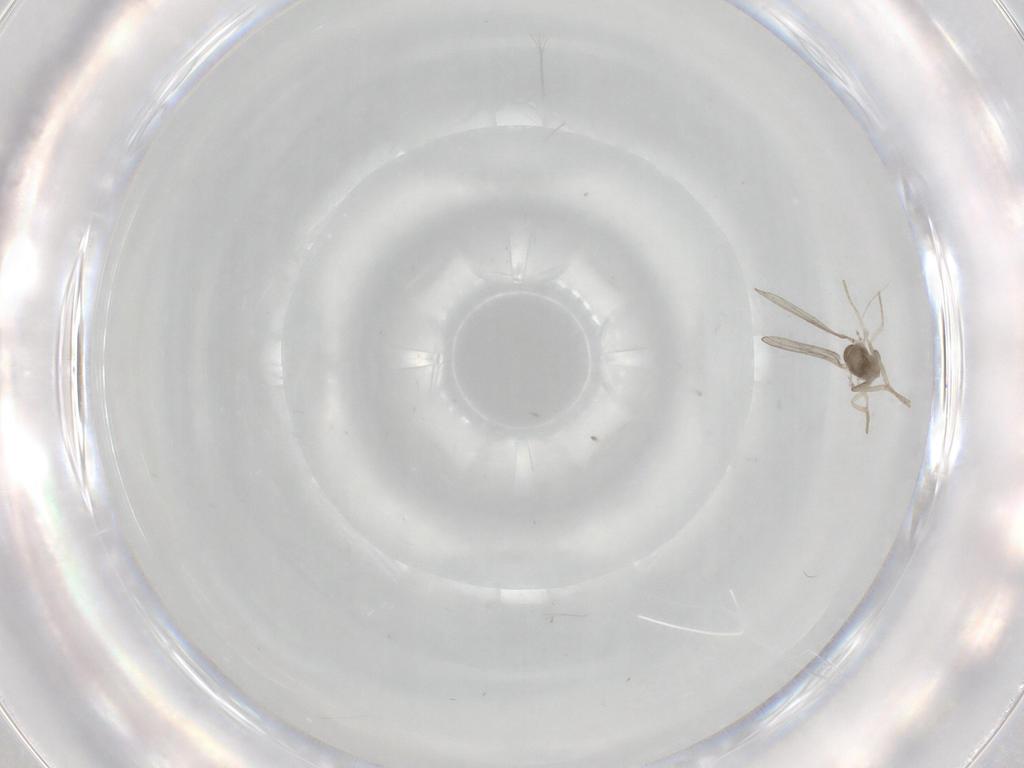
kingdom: Animalia
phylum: Arthropoda
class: Insecta
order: Diptera
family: Cecidomyiidae
